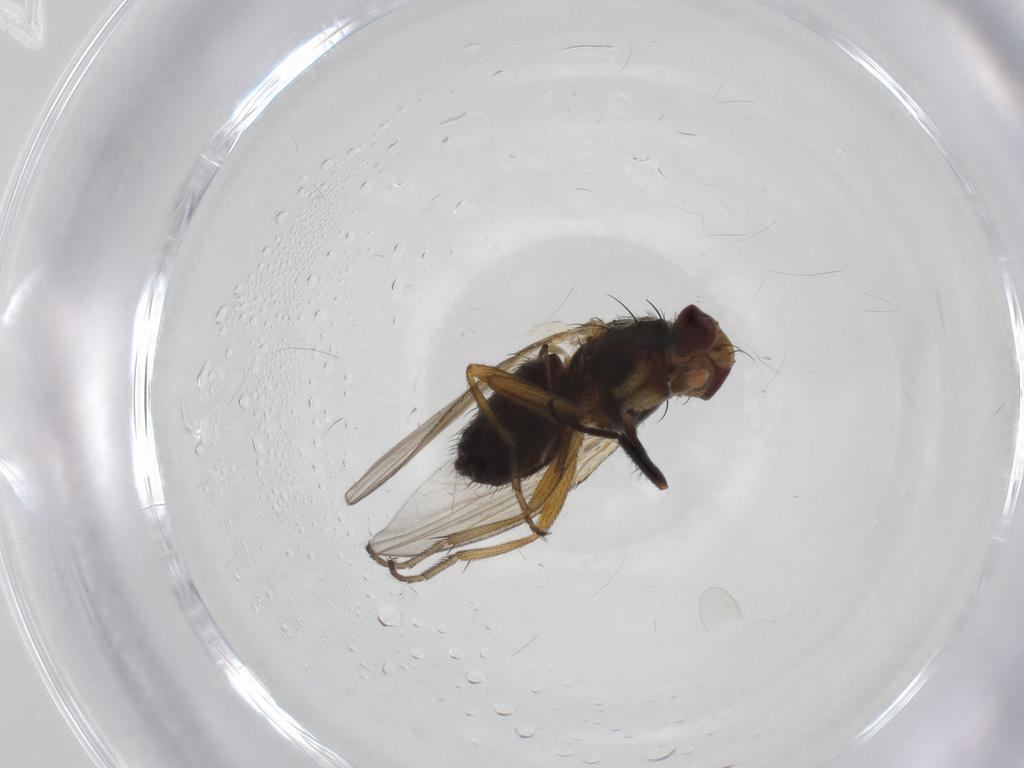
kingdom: Animalia
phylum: Arthropoda
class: Insecta
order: Diptera
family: Heleomyzidae
